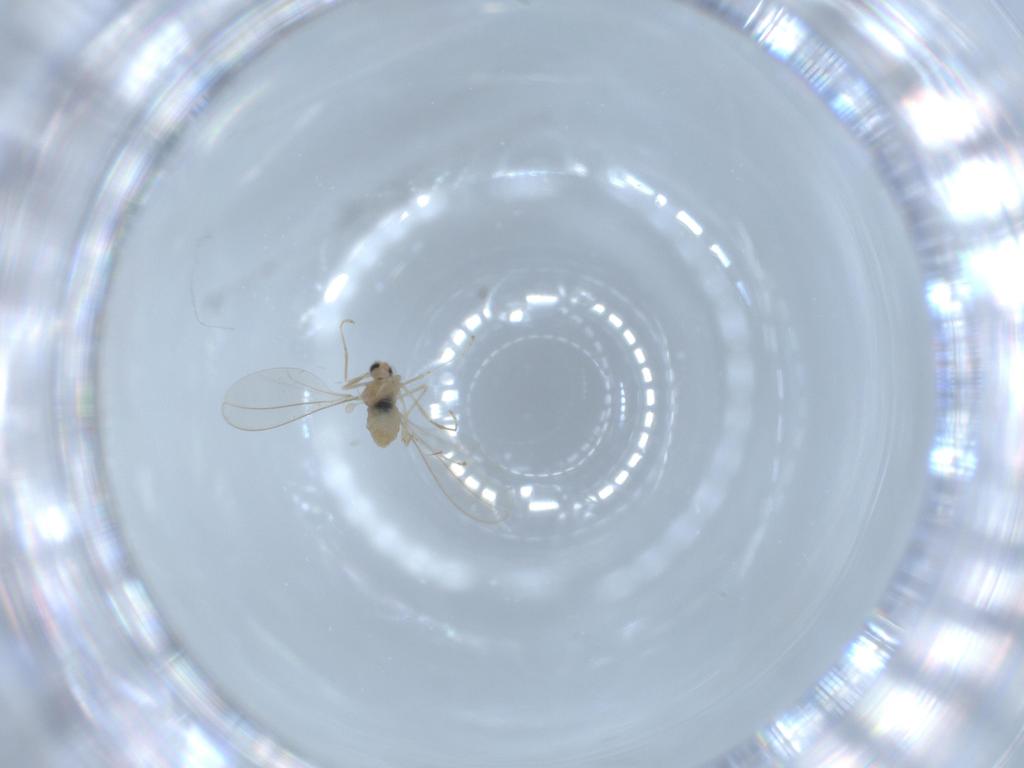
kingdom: Animalia
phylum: Arthropoda
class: Insecta
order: Diptera
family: Cecidomyiidae
